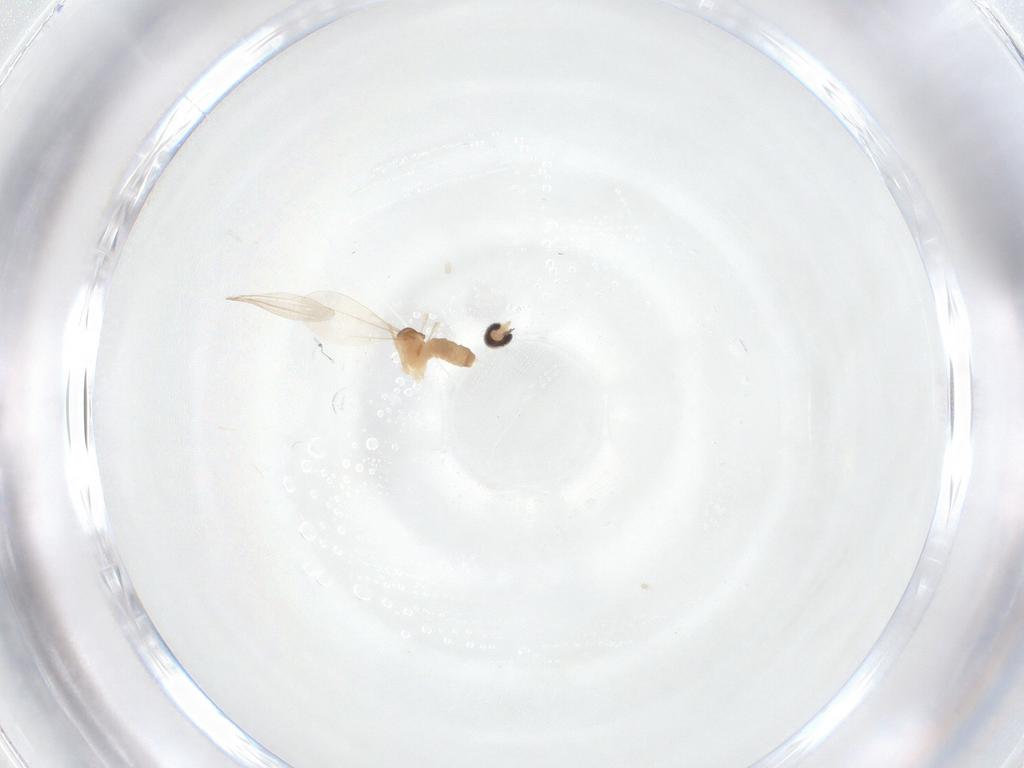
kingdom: Animalia
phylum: Arthropoda
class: Insecta
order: Diptera
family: Cecidomyiidae
